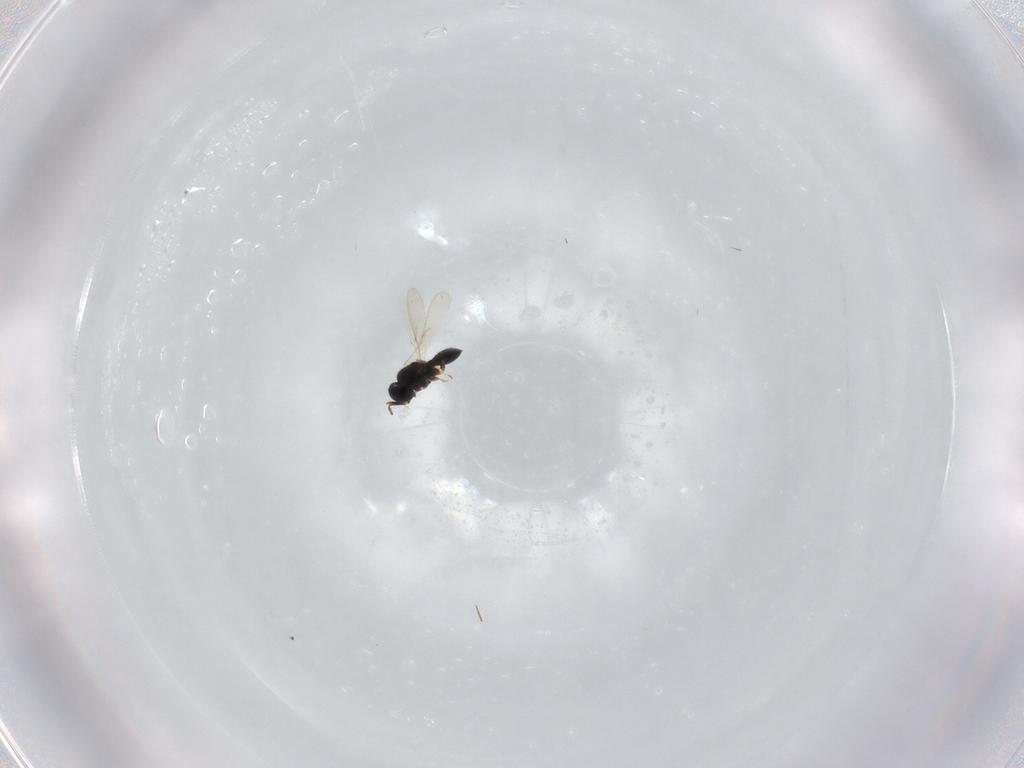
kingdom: Animalia
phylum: Arthropoda
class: Insecta
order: Hymenoptera
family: Scelionidae
